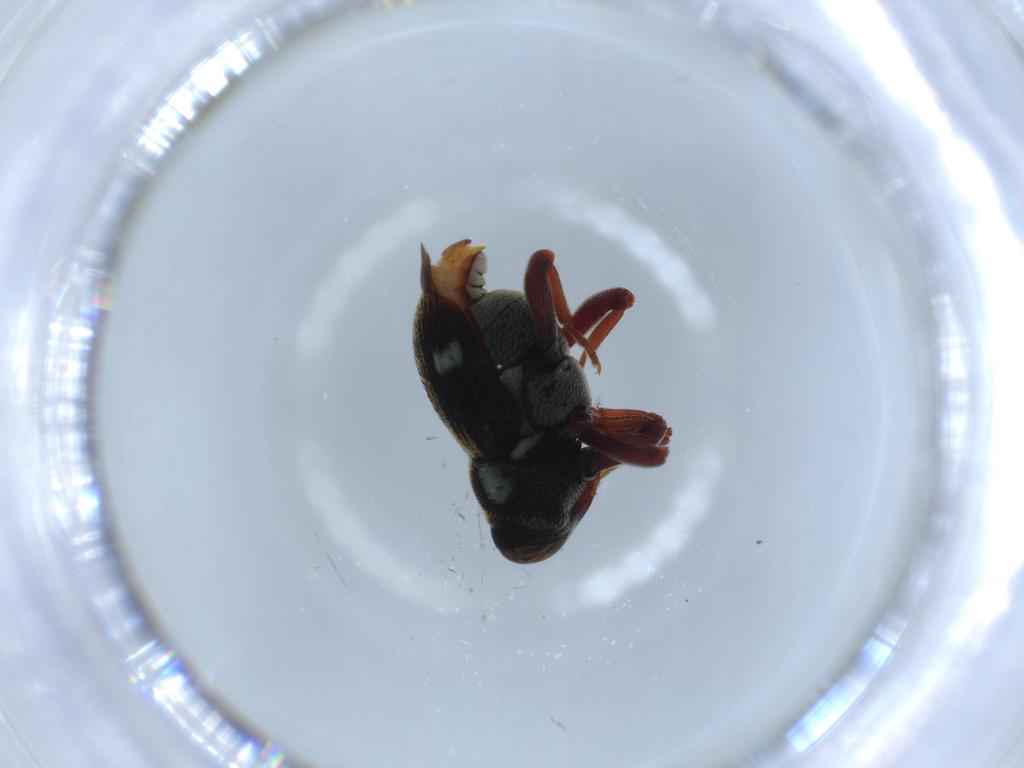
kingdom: Animalia
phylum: Arthropoda
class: Insecta
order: Coleoptera
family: Chrysomelidae
